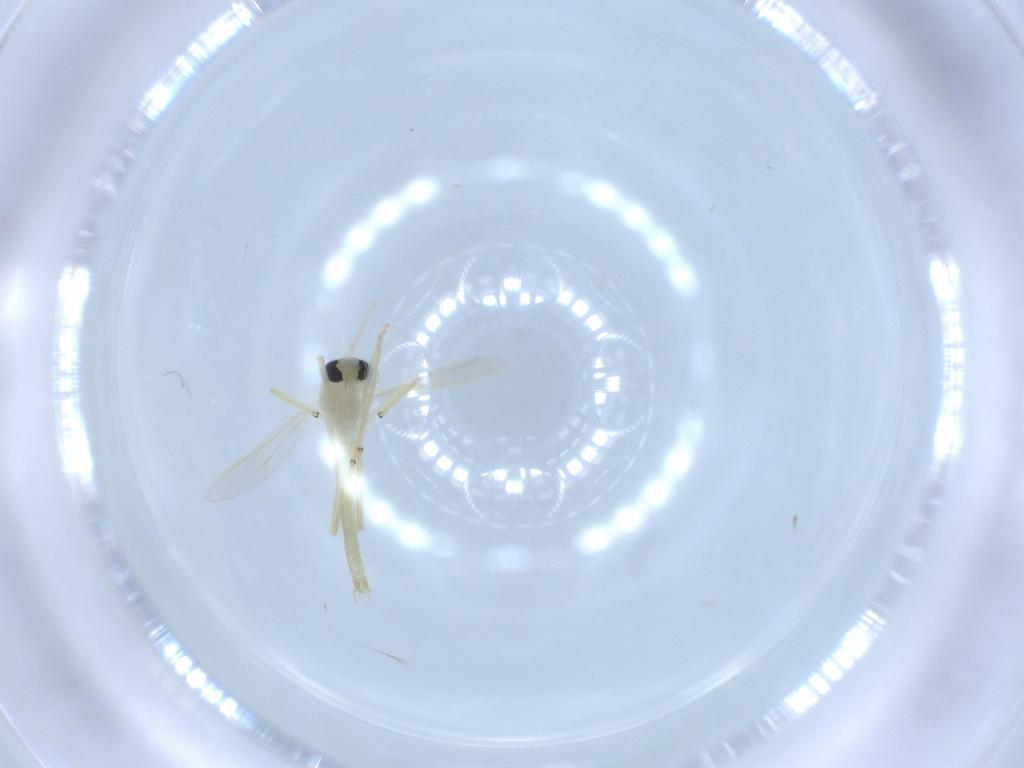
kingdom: Animalia
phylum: Arthropoda
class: Insecta
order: Diptera
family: Chironomidae
